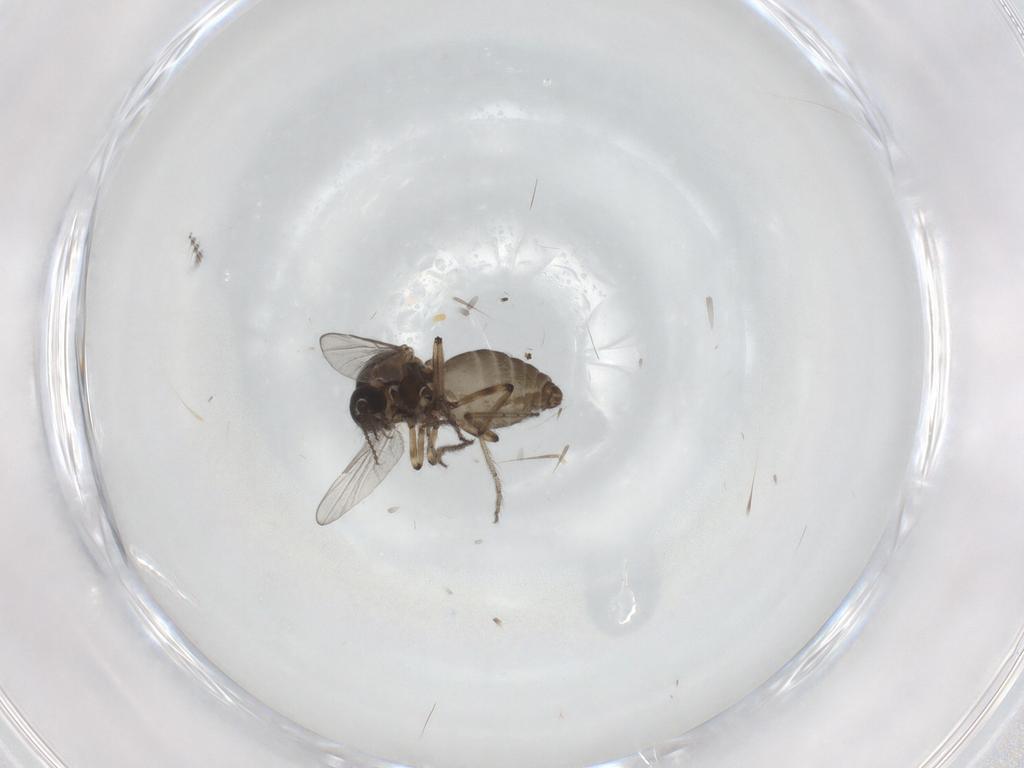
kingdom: Animalia
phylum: Arthropoda
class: Insecta
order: Diptera
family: Ceratopogonidae
